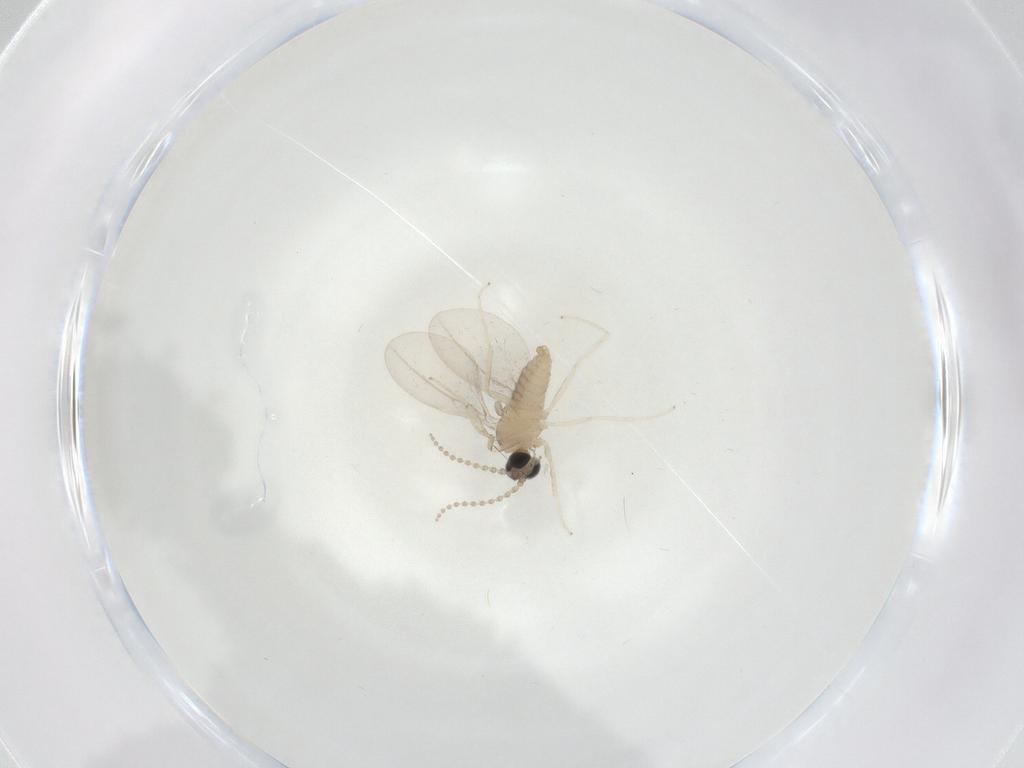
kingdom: Animalia
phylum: Arthropoda
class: Insecta
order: Diptera
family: Cecidomyiidae
